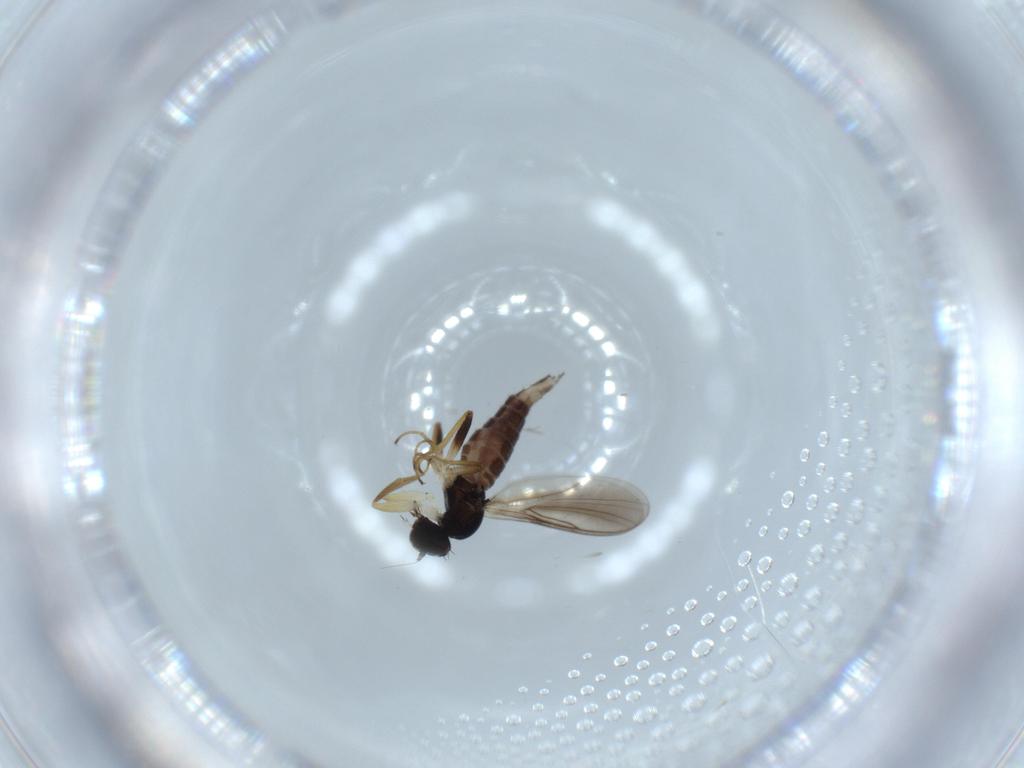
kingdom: Animalia
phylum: Arthropoda
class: Insecta
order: Diptera
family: Hybotidae
